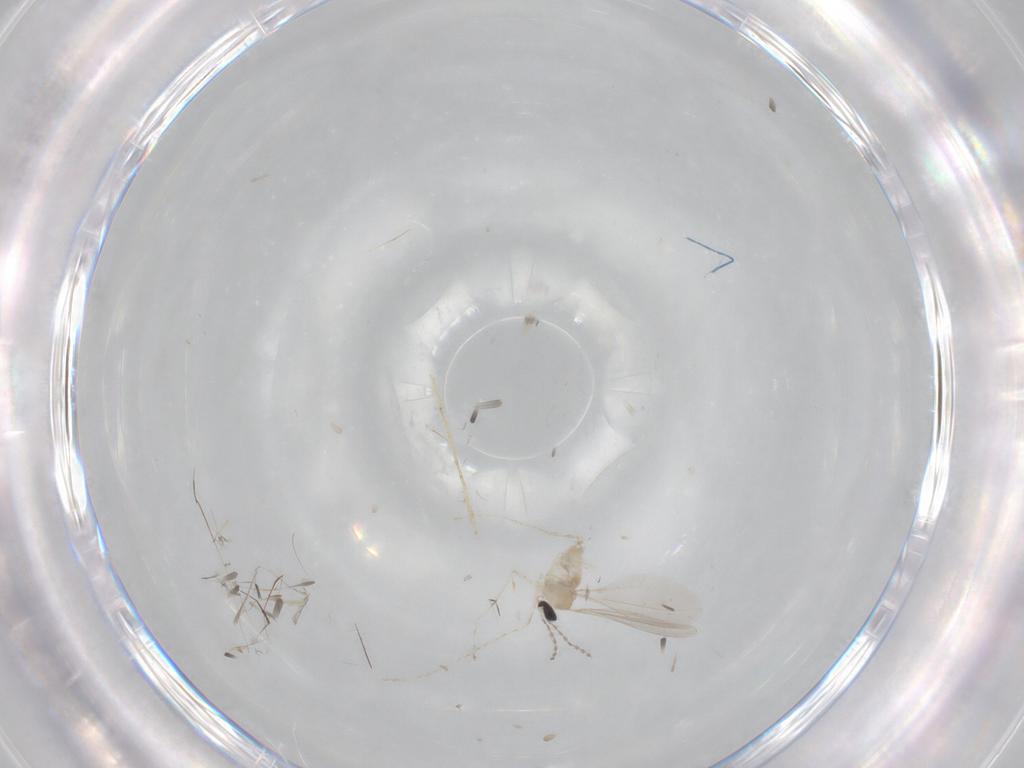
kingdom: Animalia
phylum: Arthropoda
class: Insecta
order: Diptera
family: Cecidomyiidae
